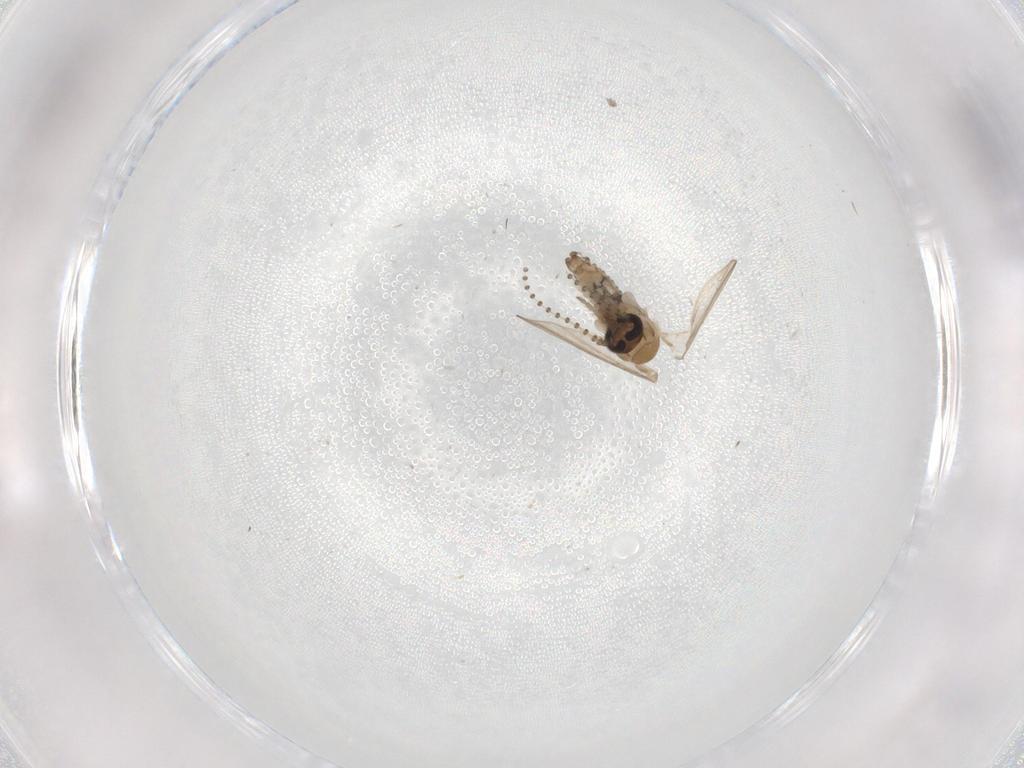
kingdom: Animalia
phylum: Arthropoda
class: Insecta
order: Diptera
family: Psychodidae
